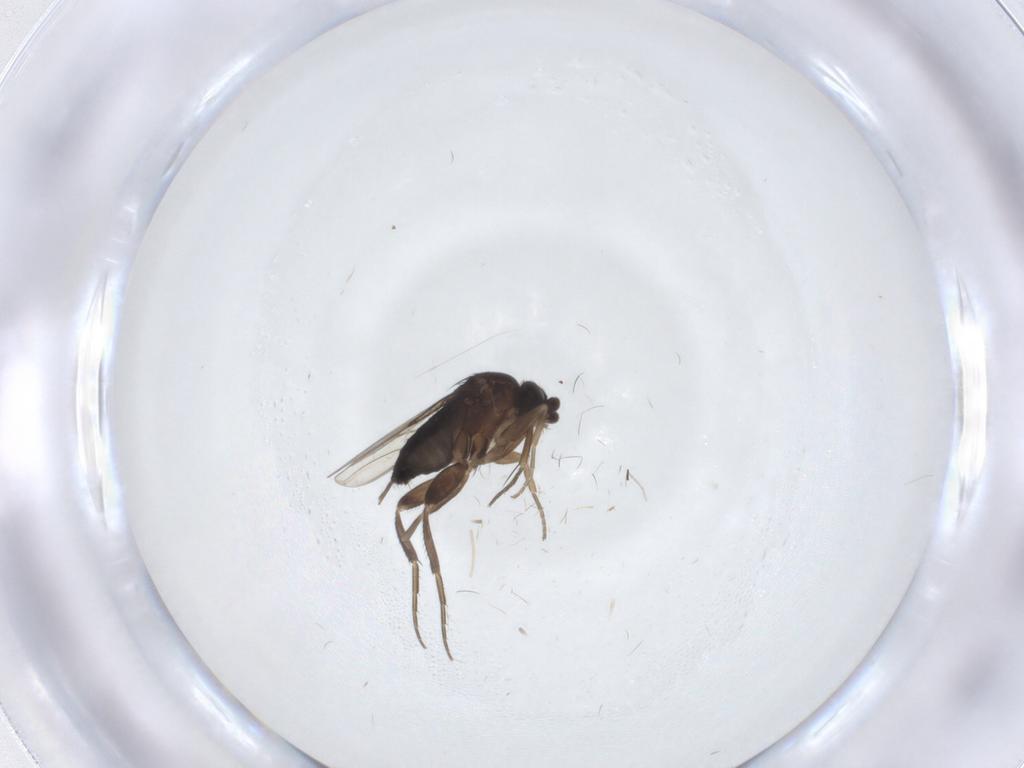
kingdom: Animalia
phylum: Arthropoda
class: Insecta
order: Diptera
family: Phoridae
